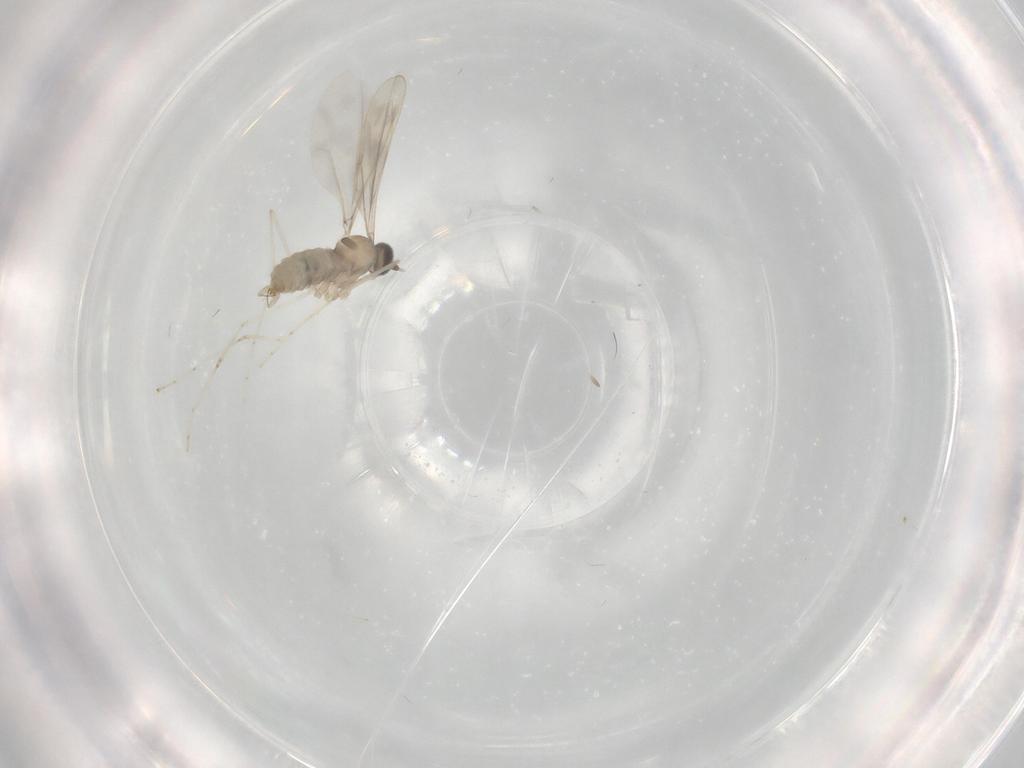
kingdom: Animalia
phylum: Arthropoda
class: Insecta
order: Diptera
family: Cecidomyiidae
